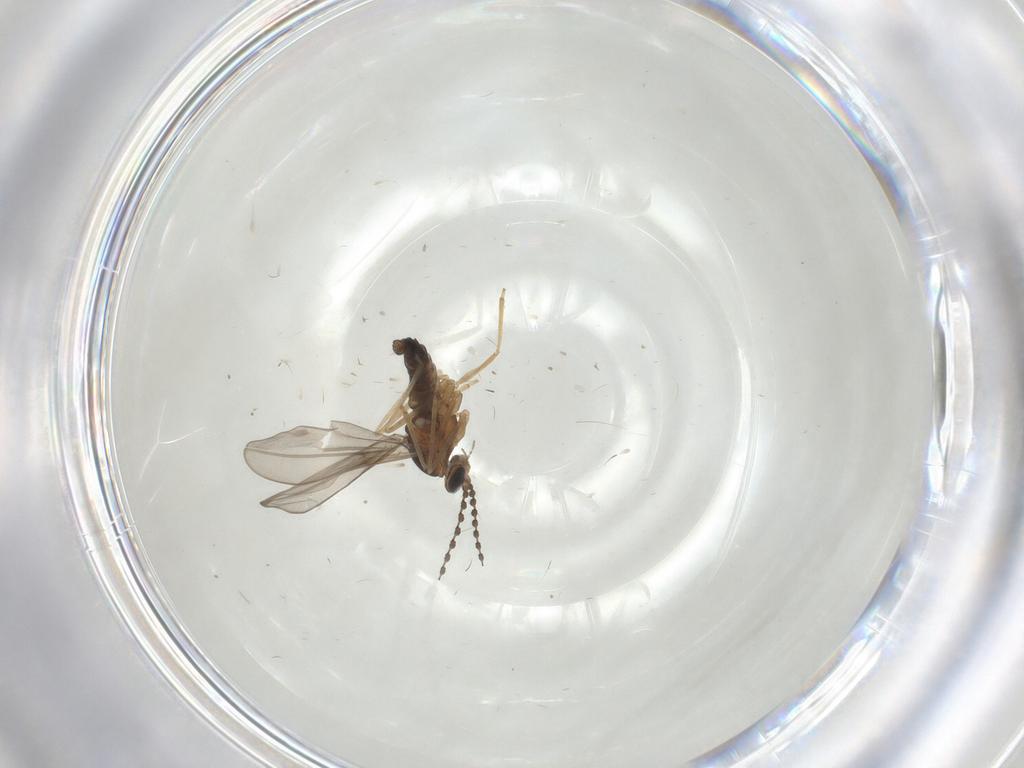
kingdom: Animalia
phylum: Arthropoda
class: Insecta
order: Diptera
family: Cecidomyiidae
